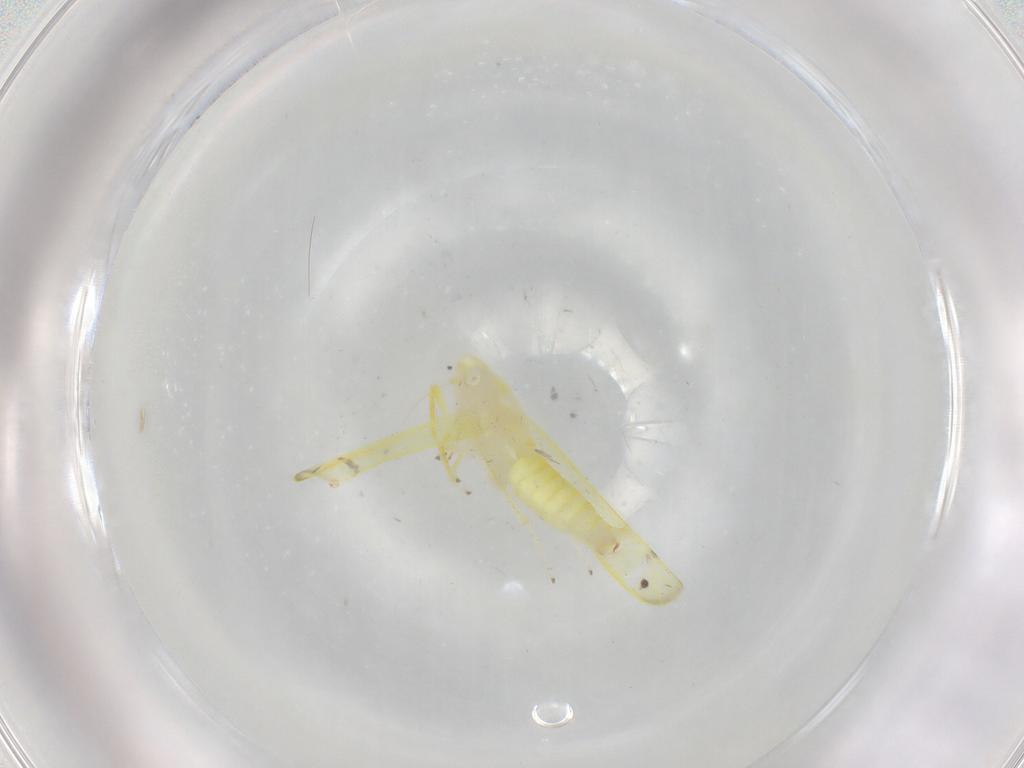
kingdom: Animalia
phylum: Arthropoda
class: Insecta
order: Hemiptera
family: Cicadellidae
